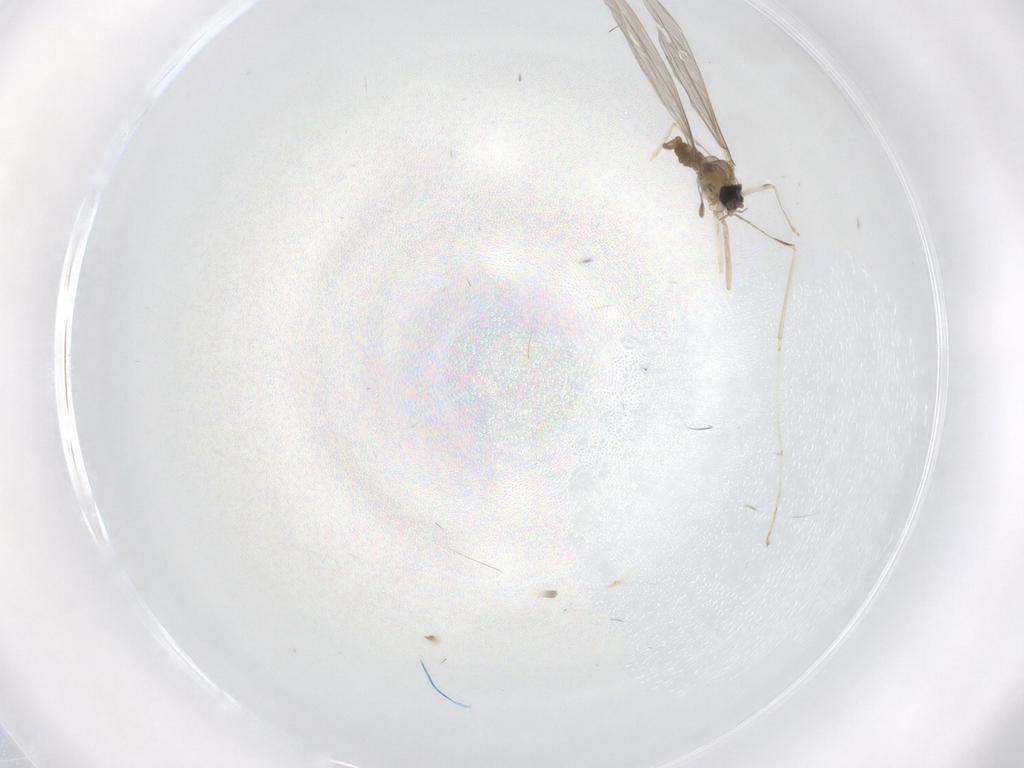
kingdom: Animalia
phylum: Arthropoda
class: Insecta
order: Diptera
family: Cecidomyiidae
